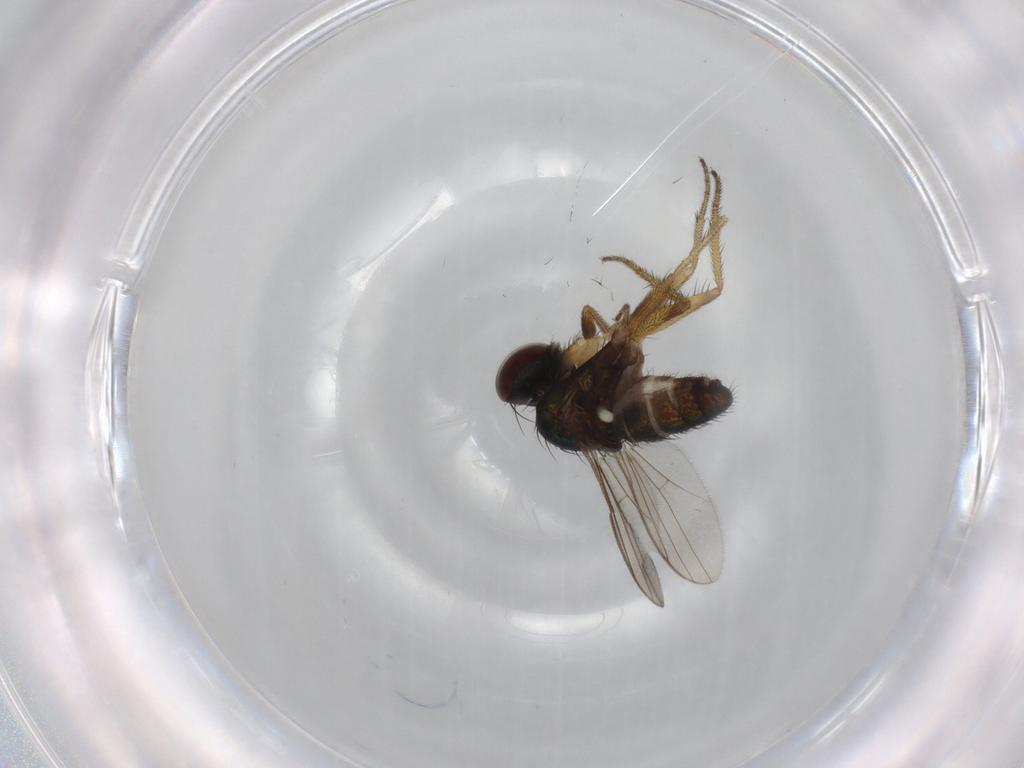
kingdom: Animalia
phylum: Arthropoda
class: Insecta
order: Diptera
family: Dolichopodidae
